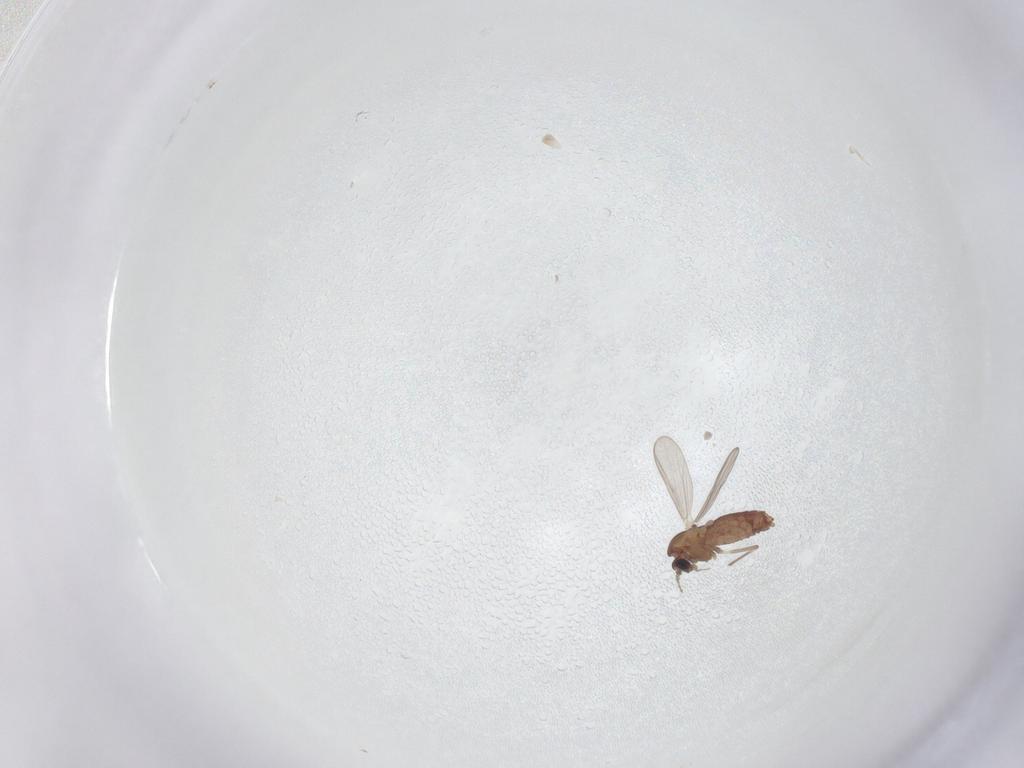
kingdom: Animalia
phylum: Arthropoda
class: Insecta
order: Diptera
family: Chironomidae
